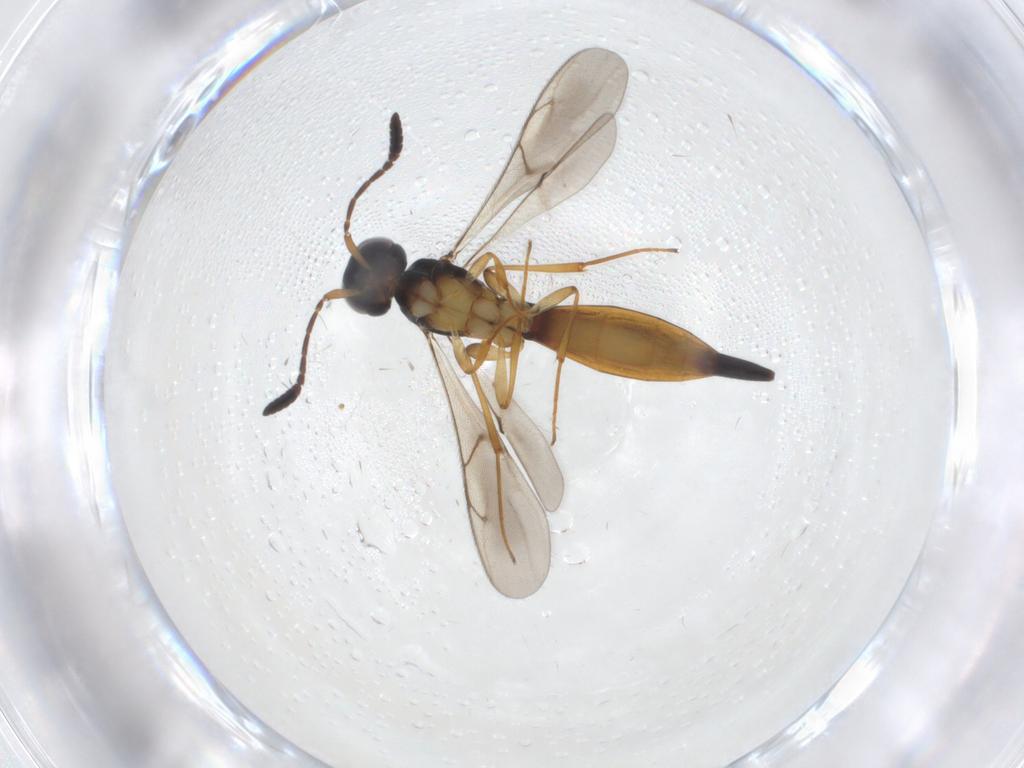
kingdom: Animalia
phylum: Arthropoda
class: Insecta
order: Hymenoptera
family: Scelionidae
